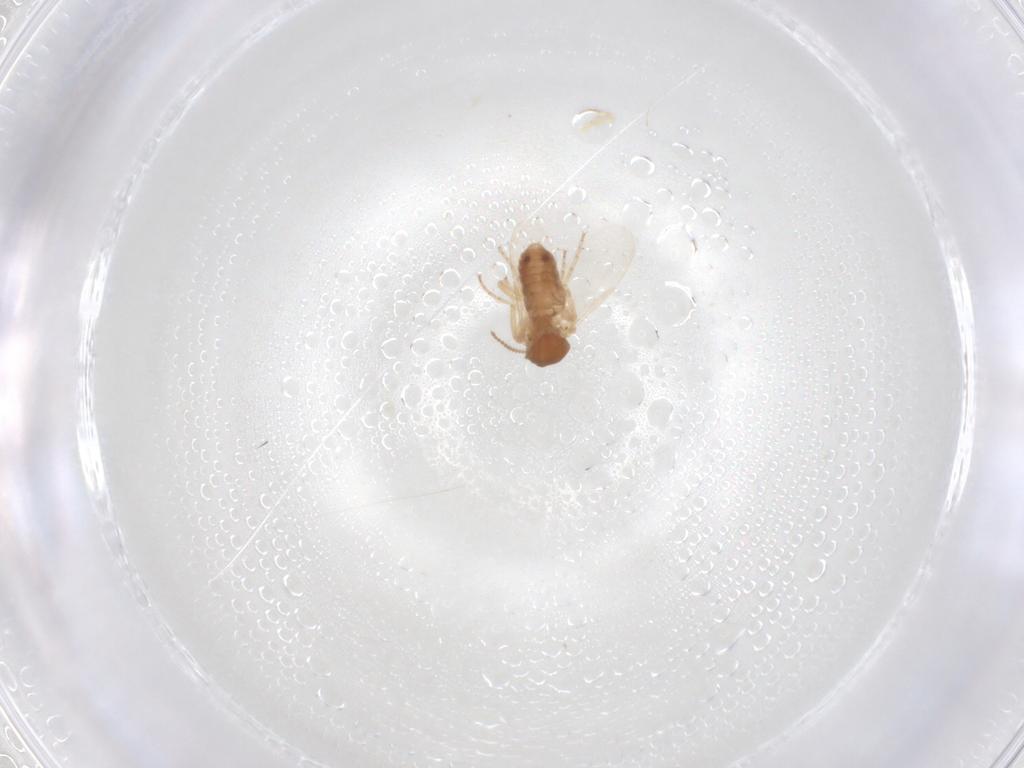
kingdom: Animalia
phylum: Arthropoda
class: Insecta
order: Diptera
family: Ceratopogonidae
